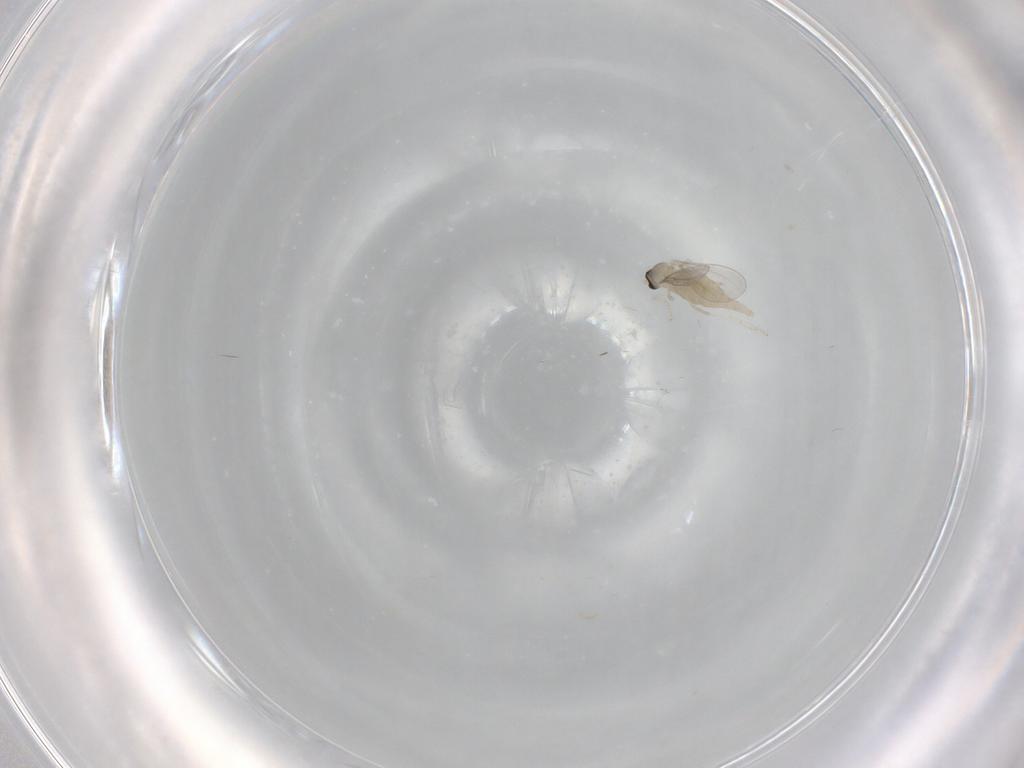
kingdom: Animalia
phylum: Arthropoda
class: Insecta
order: Diptera
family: Cecidomyiidae
